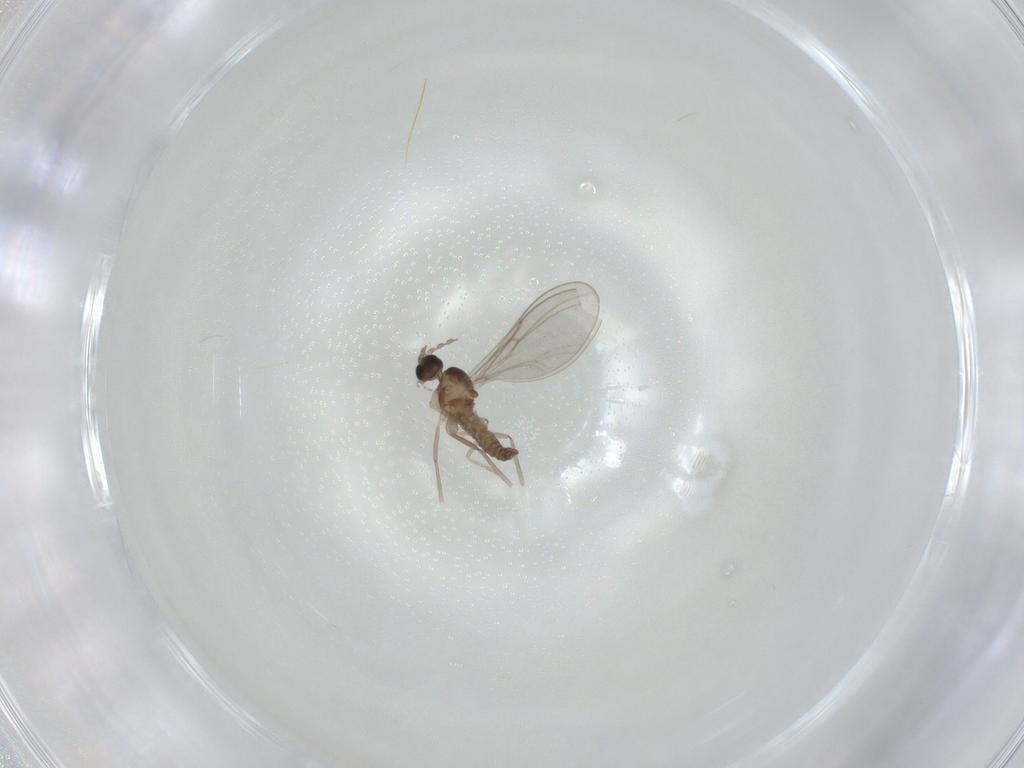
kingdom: Animalia
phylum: Arthropoda
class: Insecta
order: Diptera
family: Cecidomyiidae
